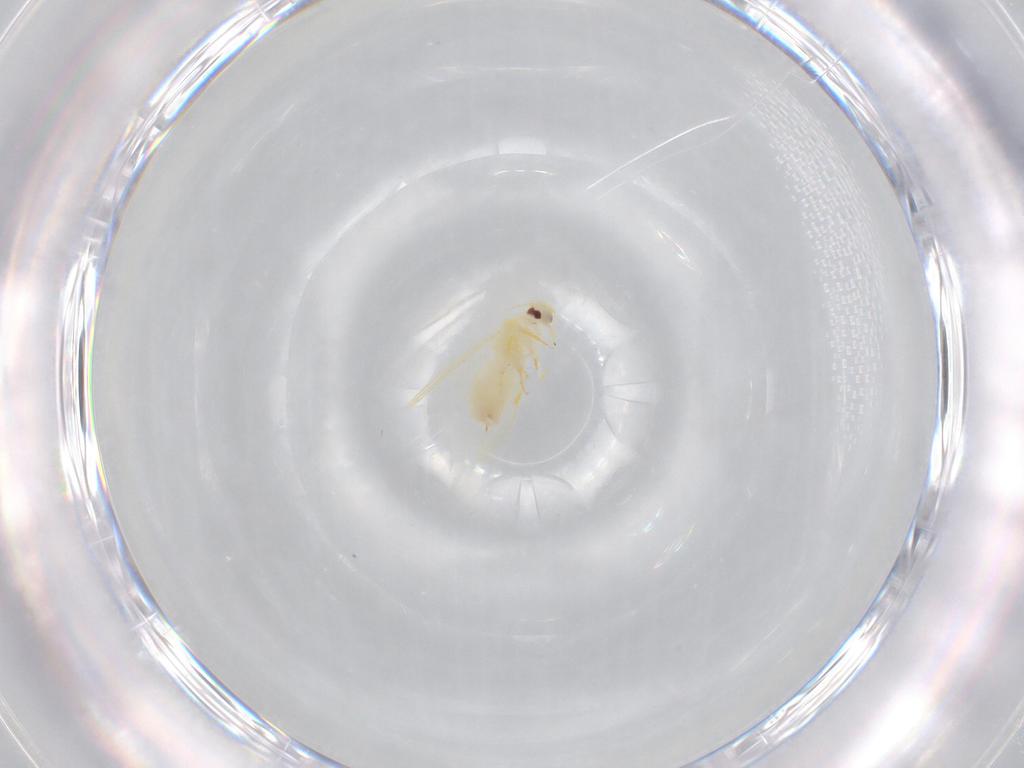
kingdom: Animalia
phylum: Arthropoda
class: Insecta
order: Hemiptera
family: Aleyrodidae
